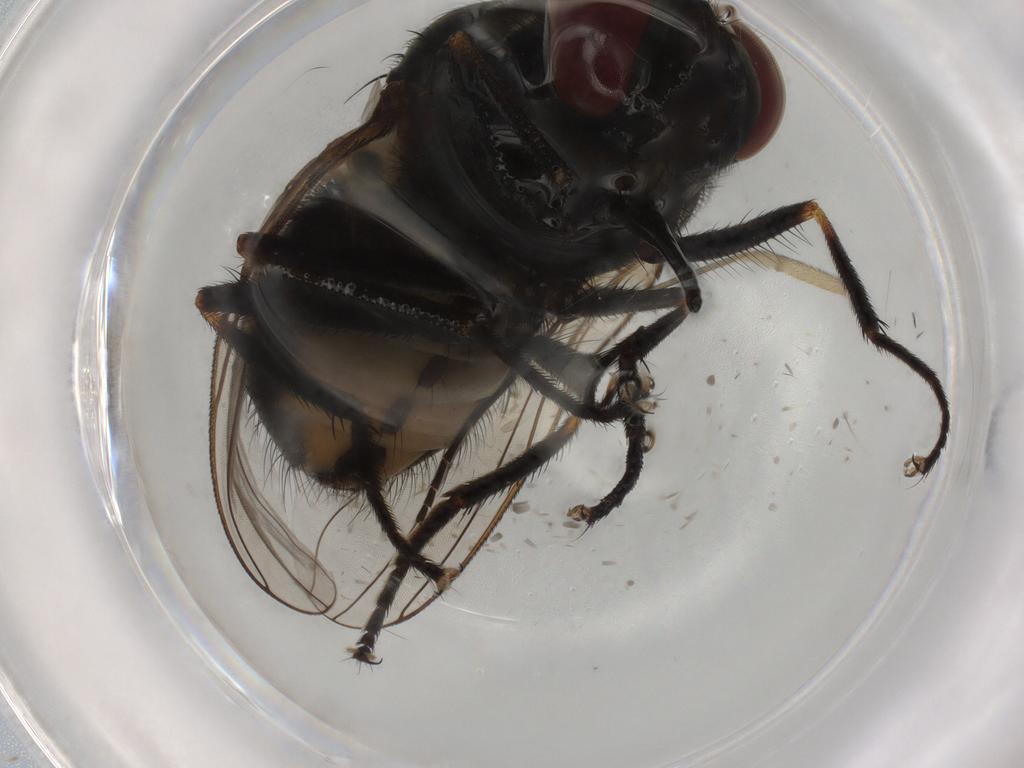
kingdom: Animalia
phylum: Arthropoda
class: Insecta
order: Diptera
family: Muscidae
